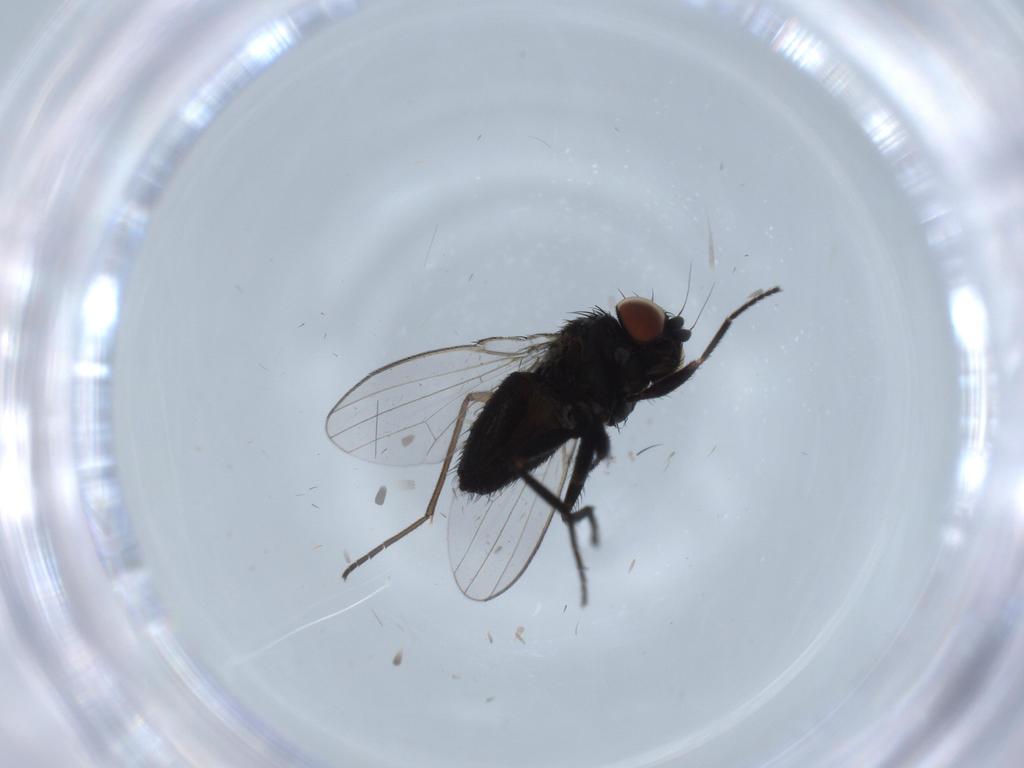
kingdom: Animalia
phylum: Arthropoda
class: Insecta
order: Diptera
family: Milichiidae
